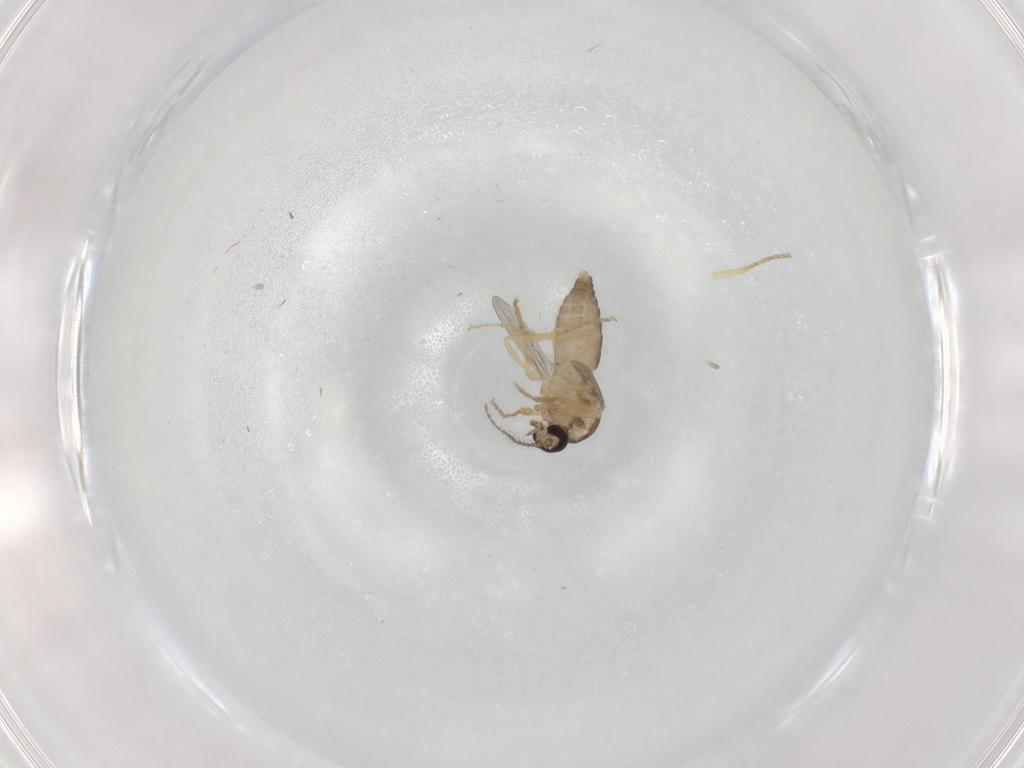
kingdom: Animalia
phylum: Arthropoda
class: Insecta
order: Diptera
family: Ceratopogonidae
